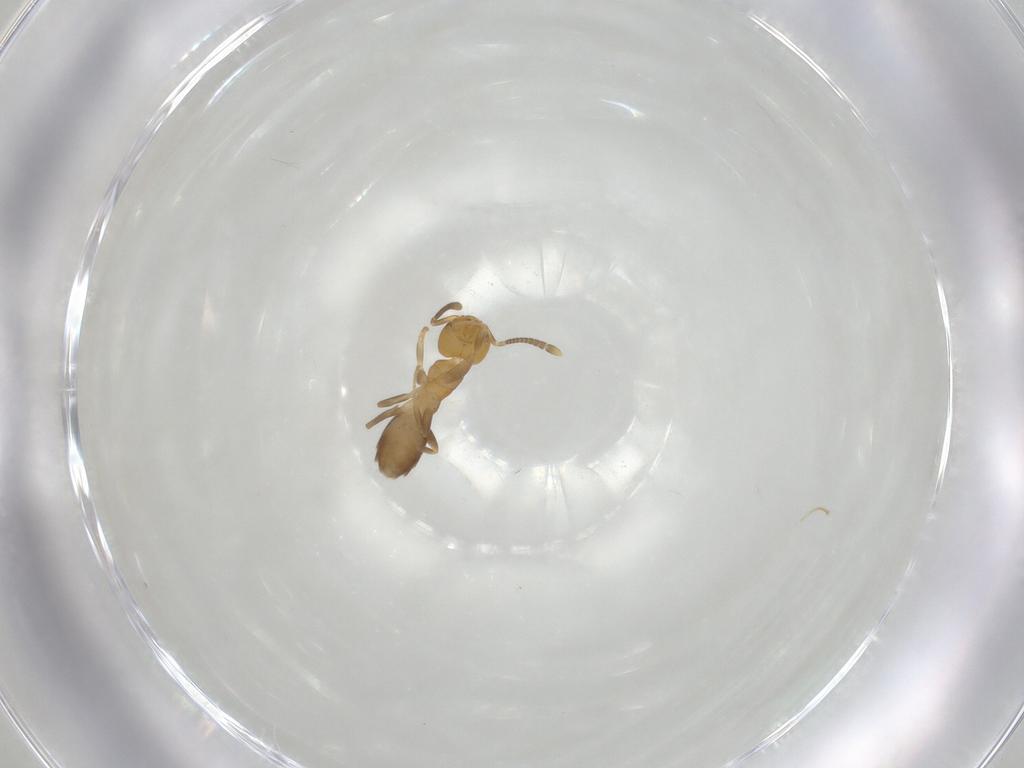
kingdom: Animalia
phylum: Arthropoda
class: Insecta
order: Hymenoptera
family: Formicidae
